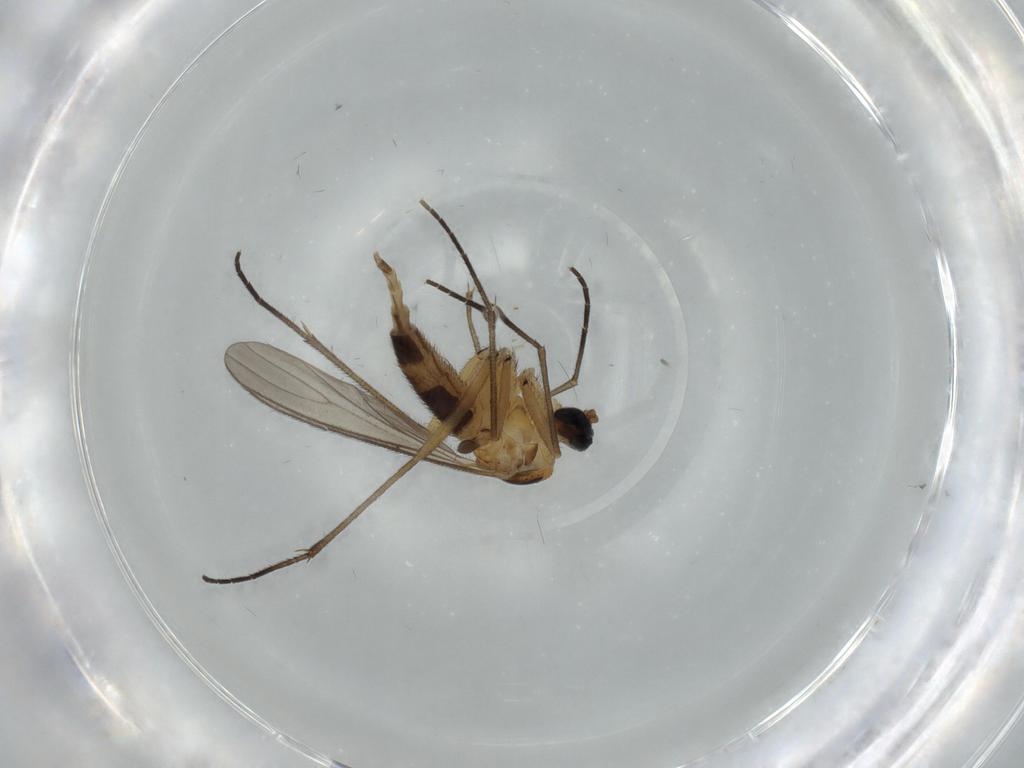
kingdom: Animalia
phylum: Arthropoda
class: Insecta
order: Diptera
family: Sciaridae
